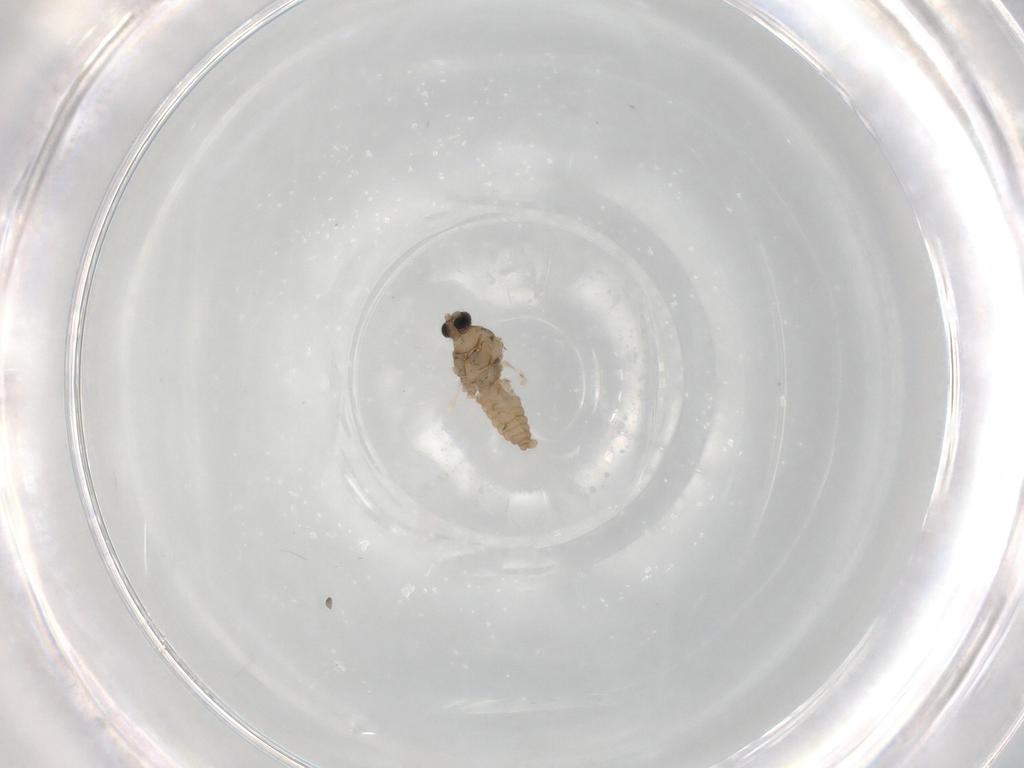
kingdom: Animalia
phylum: Arthropoda
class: Insecta
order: Diptera
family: Cecidomyiidae
